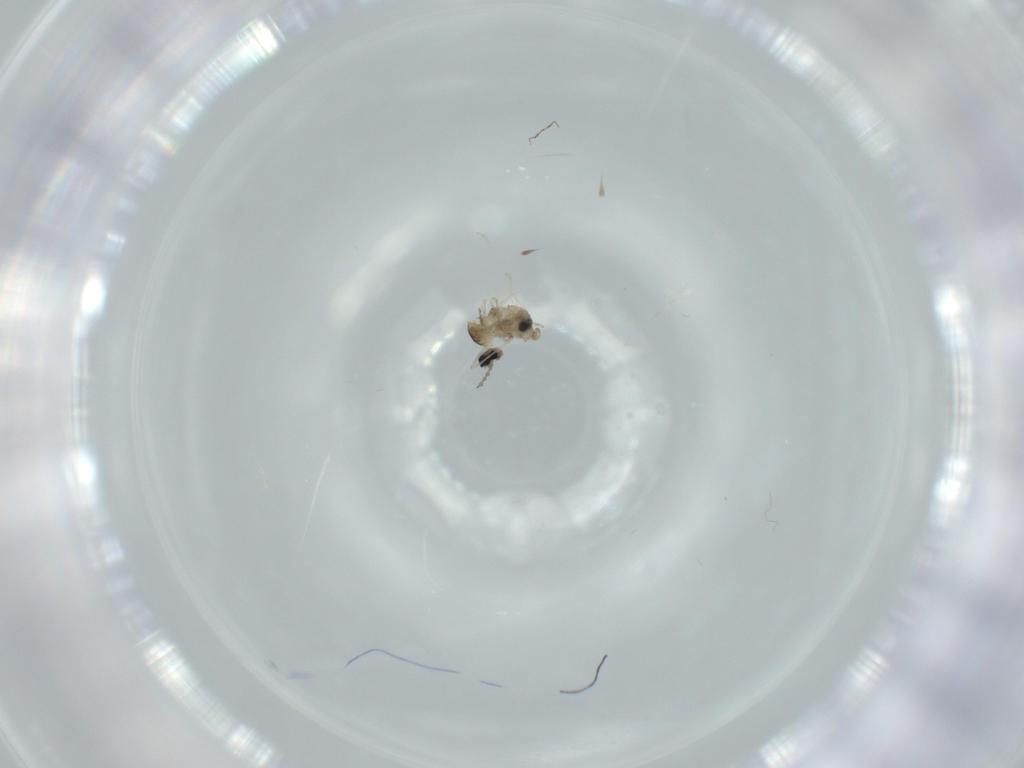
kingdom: Animalia
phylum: Arthropoda
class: Insecta
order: Diptera
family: Cecidomyiidae
